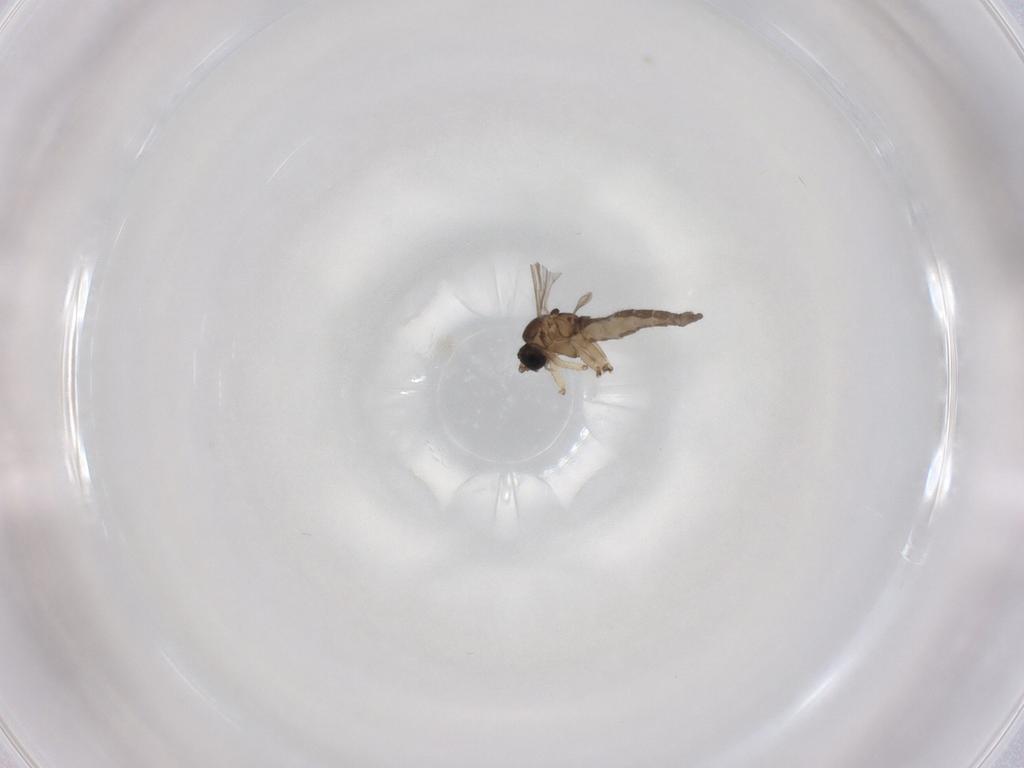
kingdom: Animalia
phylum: Arthropoda
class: Insecta
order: Diptera
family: Sciaridae
